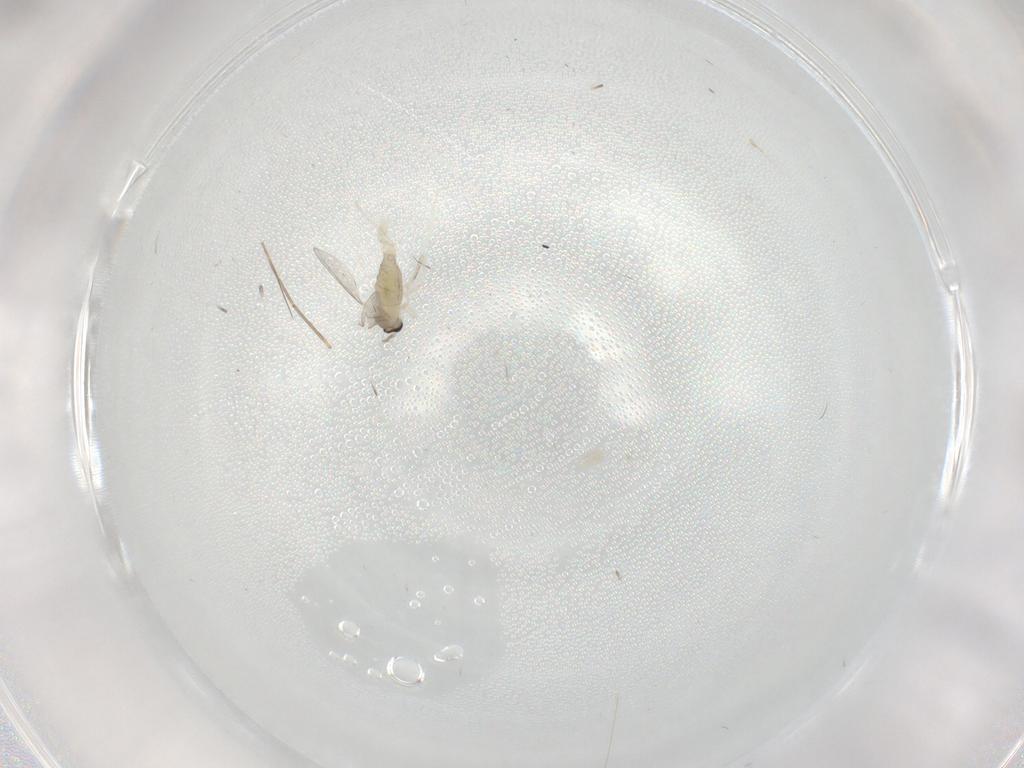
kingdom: Animalia
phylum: Arthropoda
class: Insecta
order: Diptera
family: Cecidomyiidae
